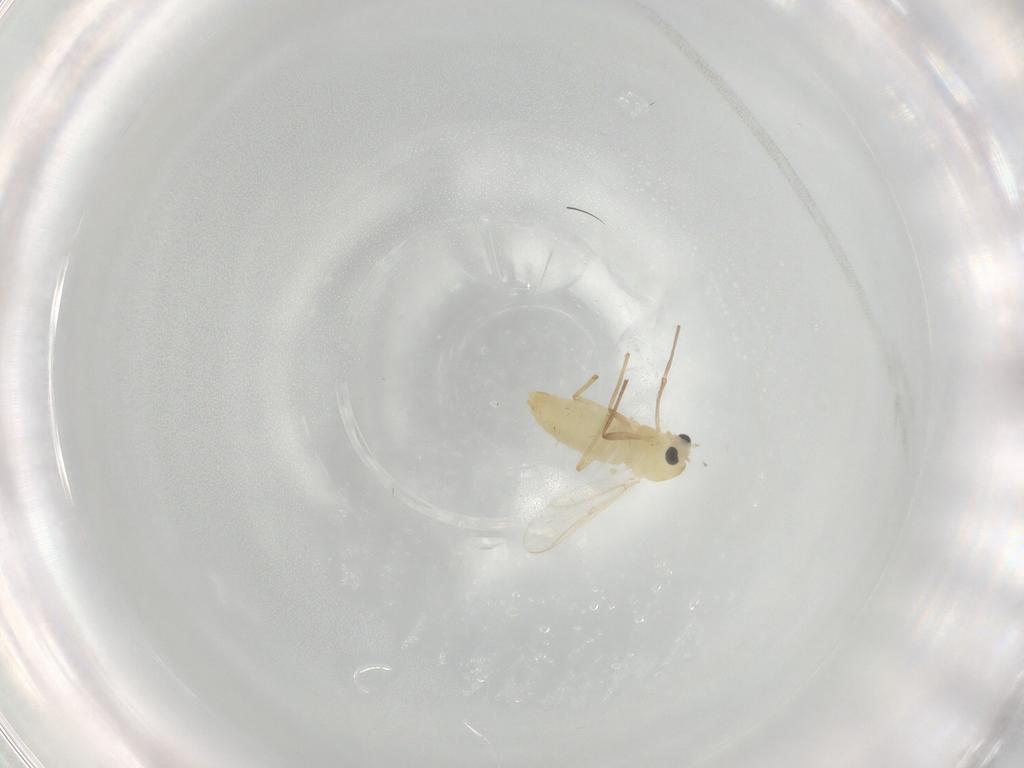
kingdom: Animalia
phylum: Arthropoda
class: Insecta
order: Diptera
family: Chironomidae
